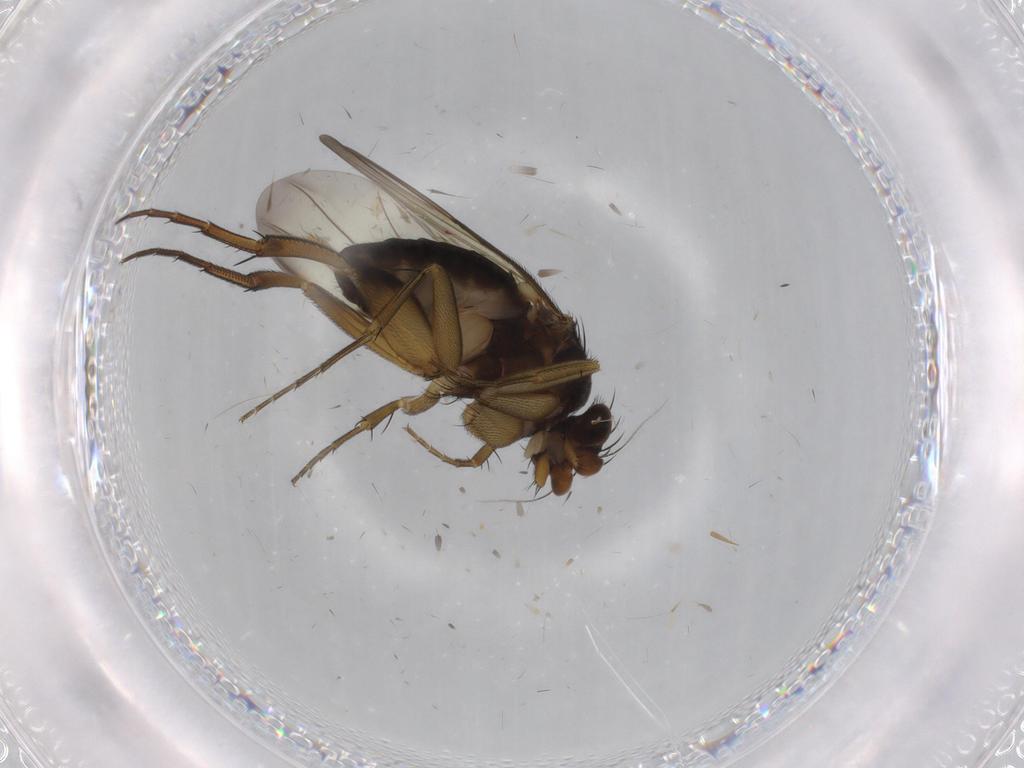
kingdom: Animalia
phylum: Arthropoda
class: Insecta
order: Diptera
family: Phoridae
